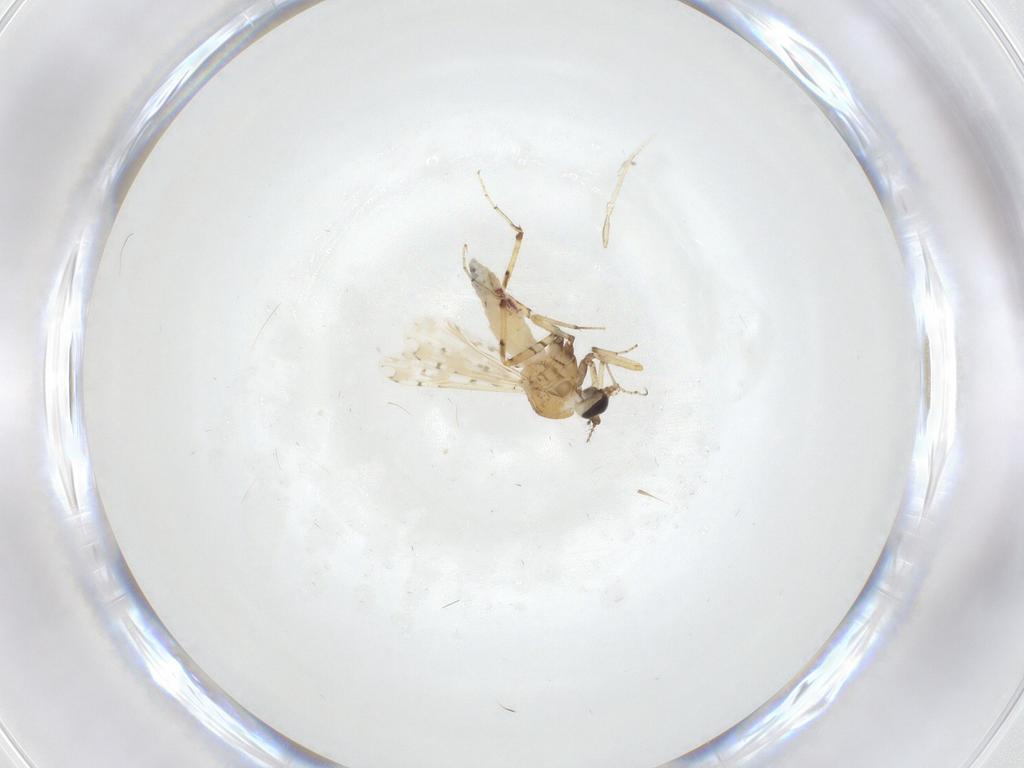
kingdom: Animalia
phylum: Arthropoda
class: Insecta
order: Diptera
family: Ceratopogonidae
